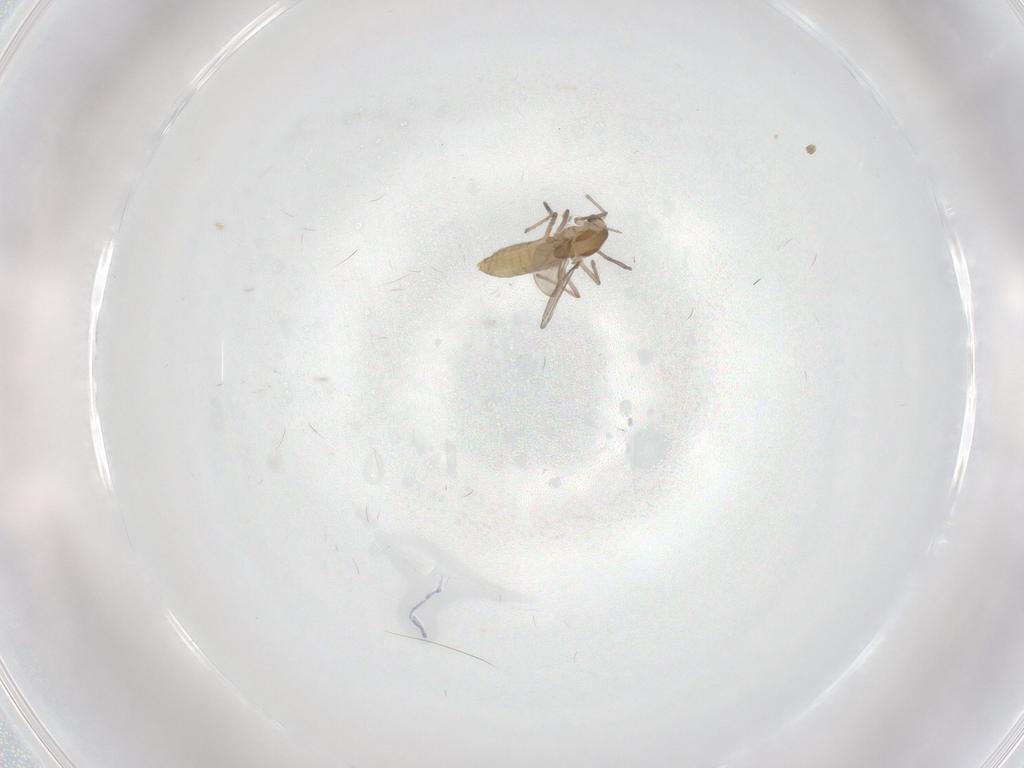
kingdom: Animalia
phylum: Arthropoda
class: Insecta
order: Diptera
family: Chironomidae
